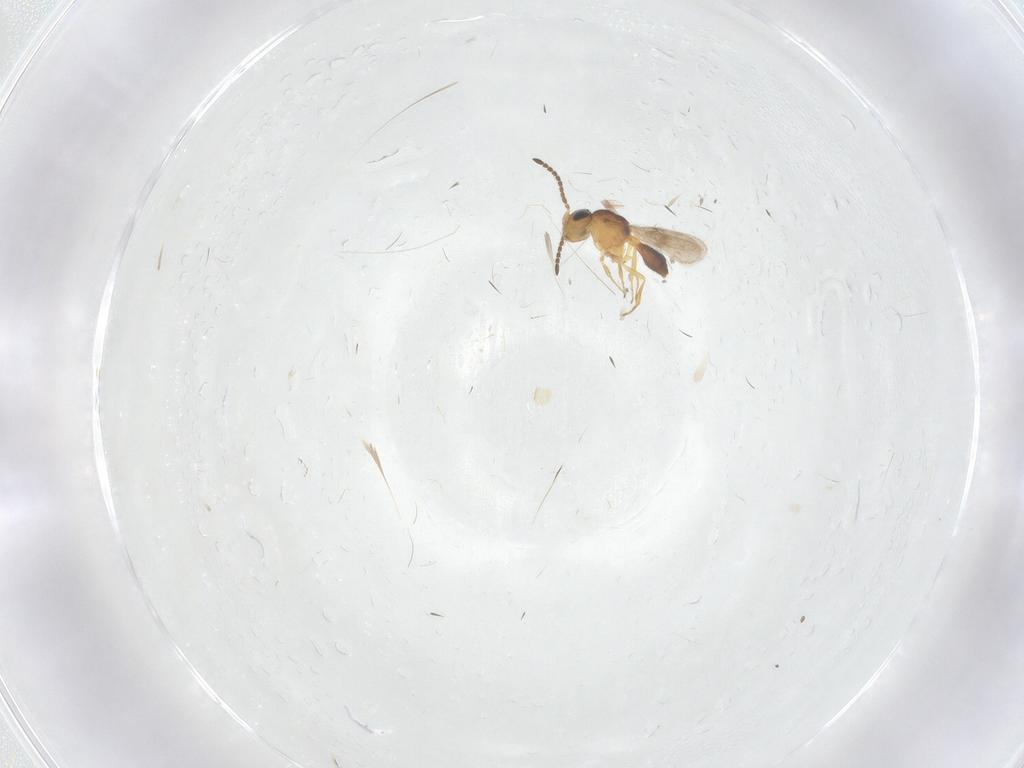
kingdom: Animalia
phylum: Arthropoda
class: Insecta
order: Hymenoptera
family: Scelionidae
